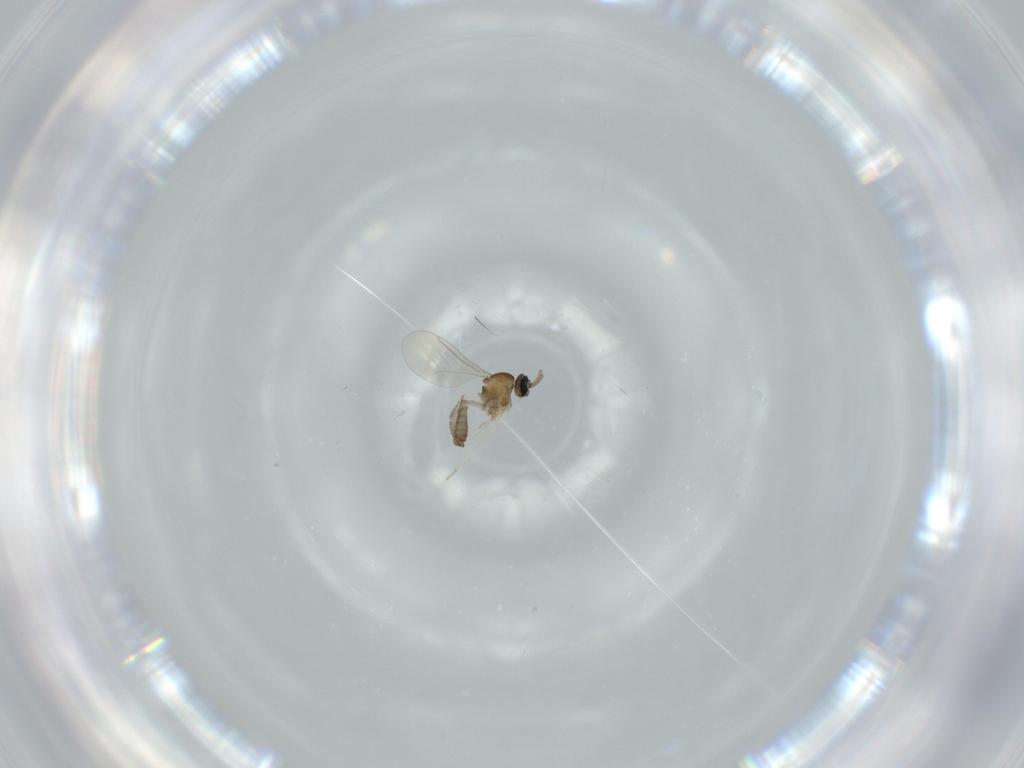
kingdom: Animalia
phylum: Arthropoda
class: Insecta
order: Diptera
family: Cecidomyiidae
